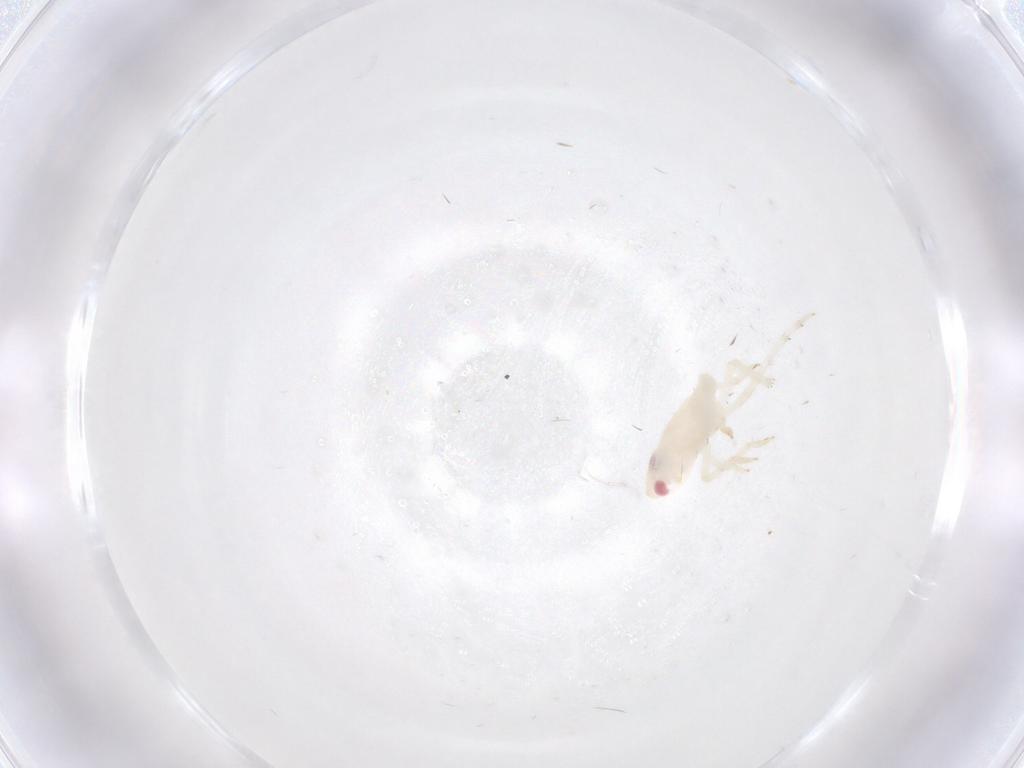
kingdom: Animalia
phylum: Arthropoda
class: Insecta
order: Hemiptera
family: Tropiduchidae
